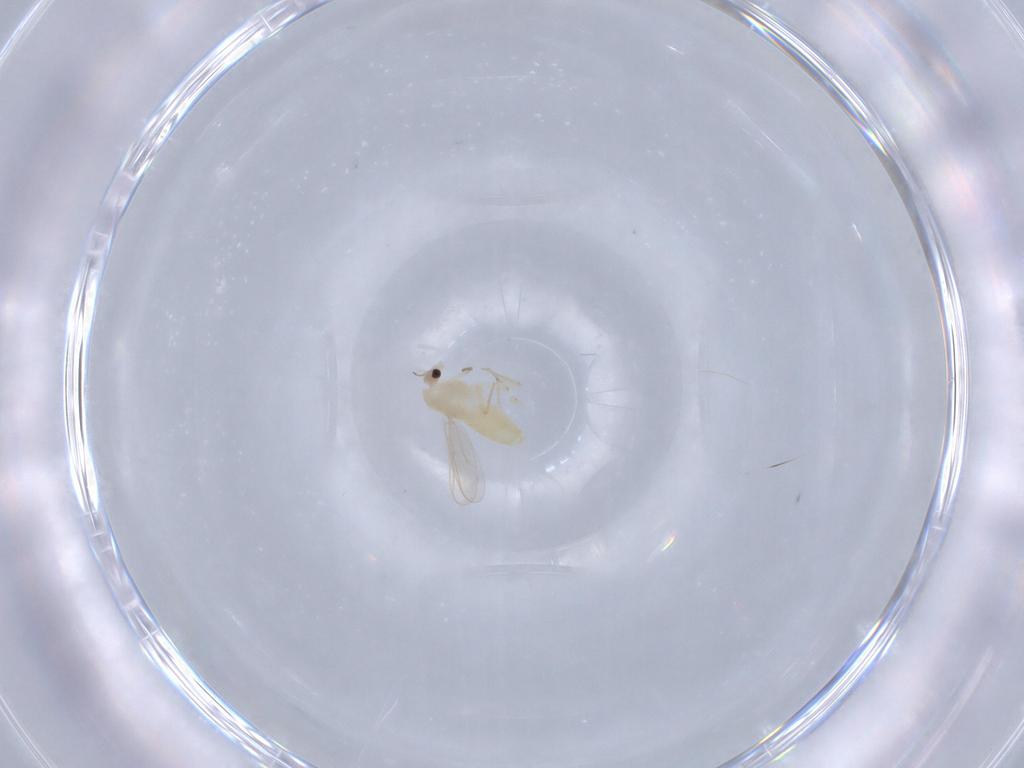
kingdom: Animalia
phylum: Arthropoda
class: Insecta
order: Diptera
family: Chironomidae
